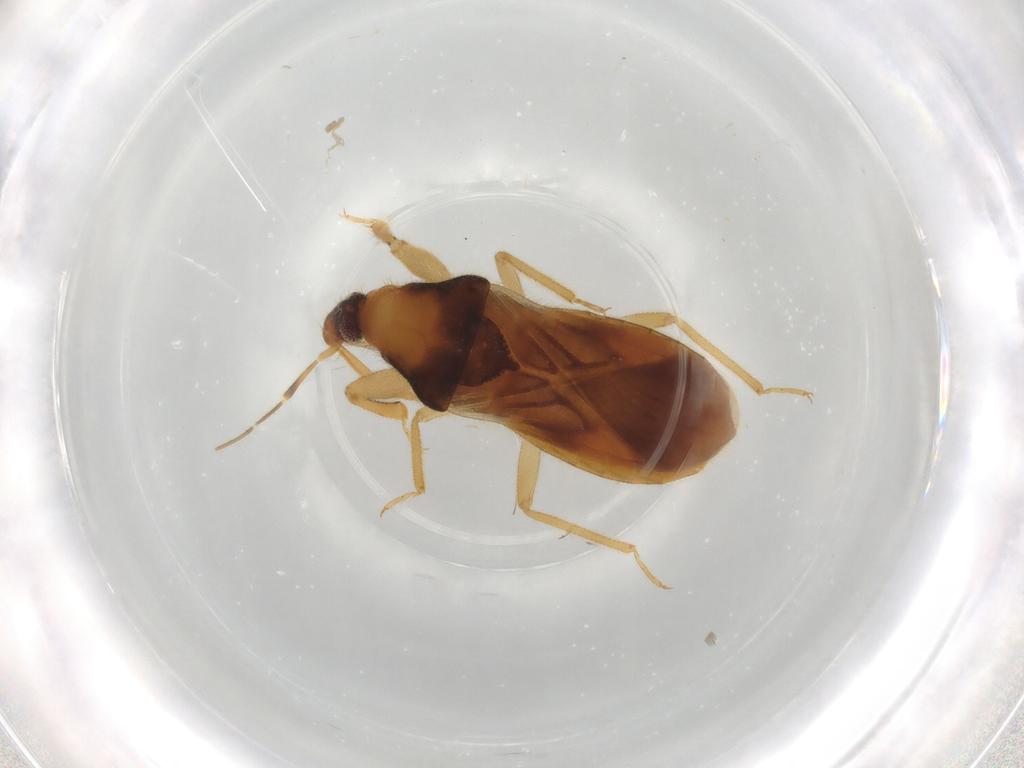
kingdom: Animalia
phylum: Arthropoda
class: Insecta
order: Hemiptera
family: Nabidae
